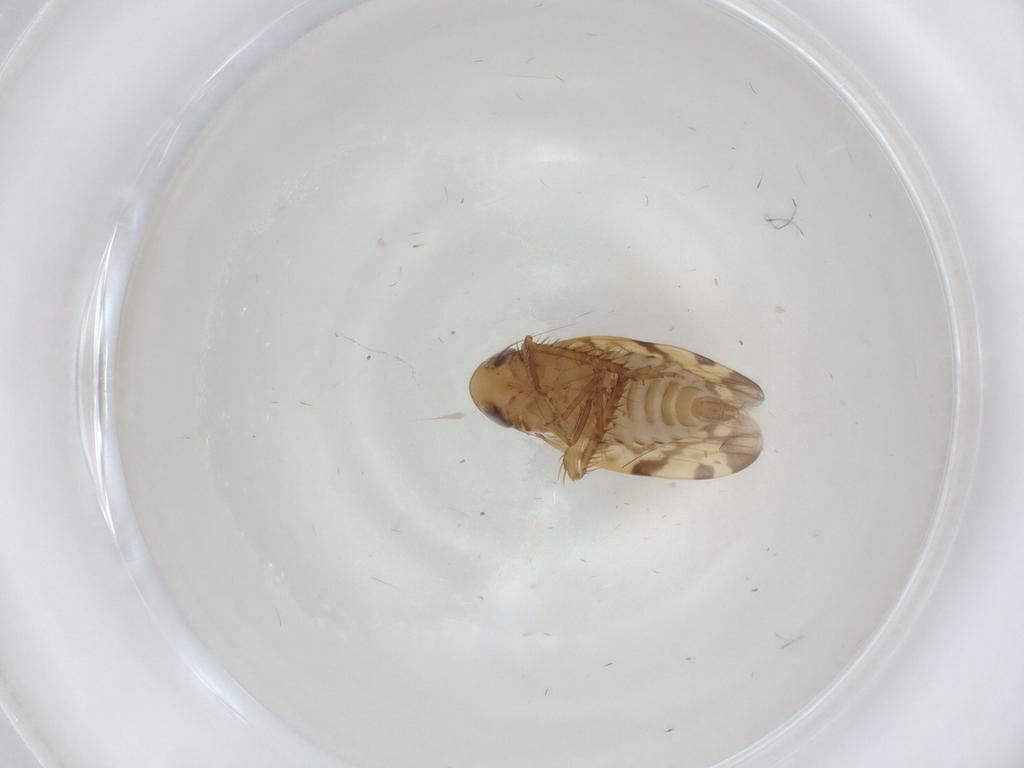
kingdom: Animalia
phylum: Arthropoda
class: Insecta
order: Hemiptera
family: Cicadellidae
